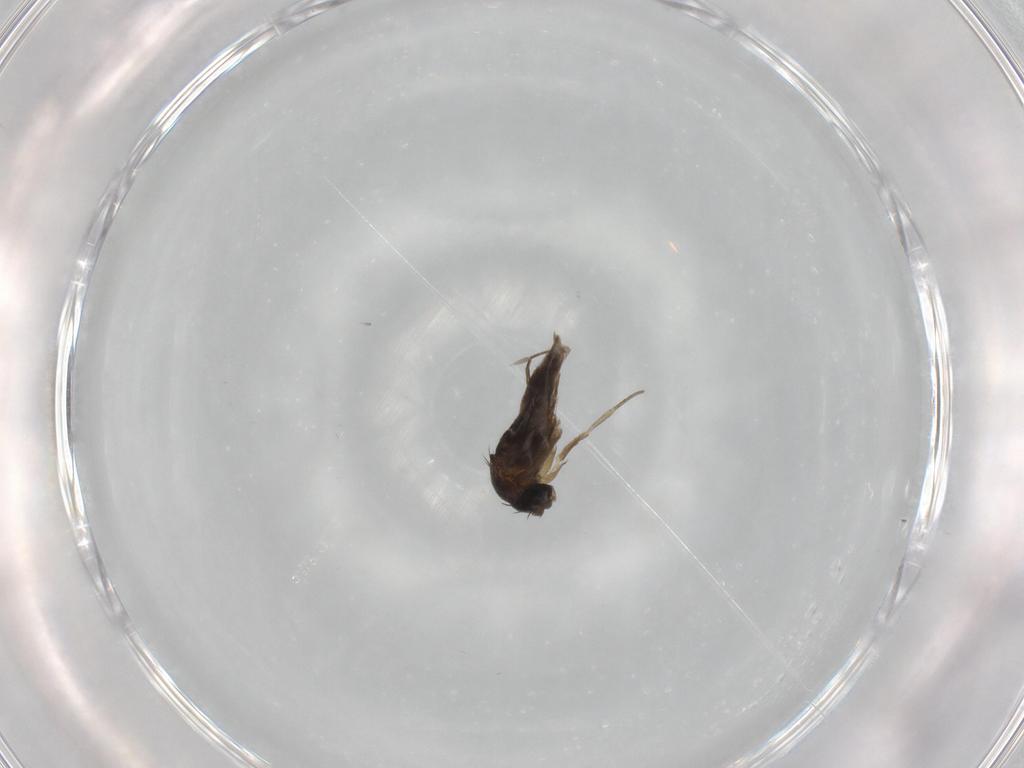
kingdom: Animalia
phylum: Arthropoda
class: Insecta
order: Diptera
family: Phoridae
